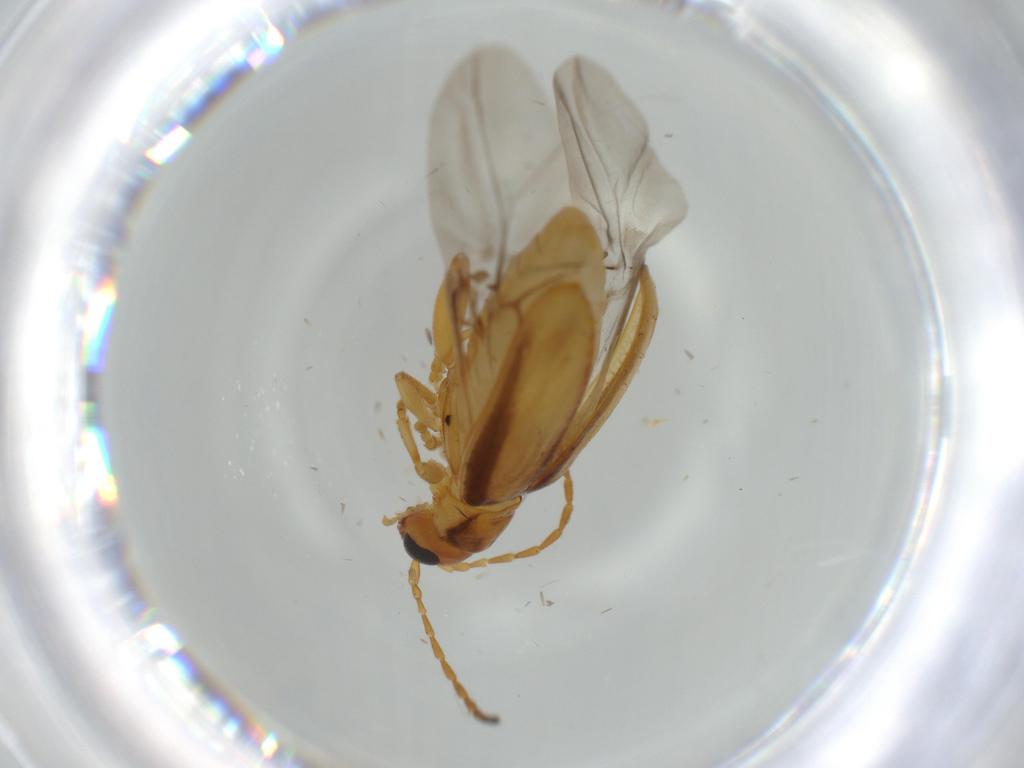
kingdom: Animalia
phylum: Arthropoda
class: Insecta
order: Coleoptera
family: Chrysomelidae
